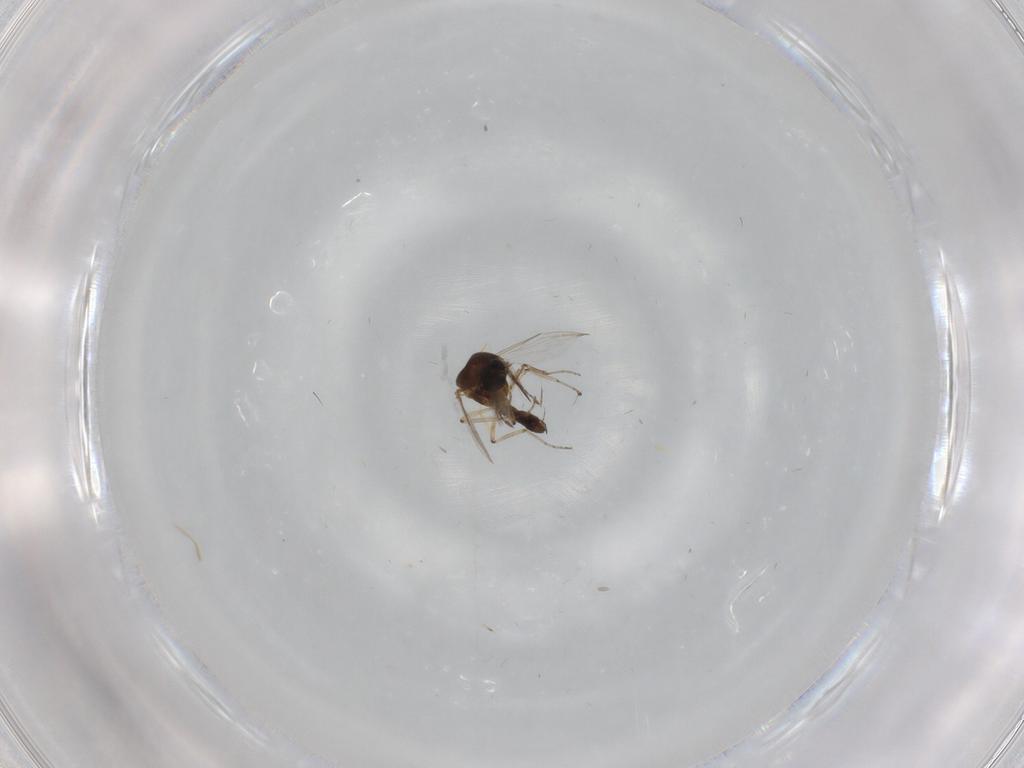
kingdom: Animalia
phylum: Arthropoda
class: Insecta
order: Diptera
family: Ceratopogonidae
